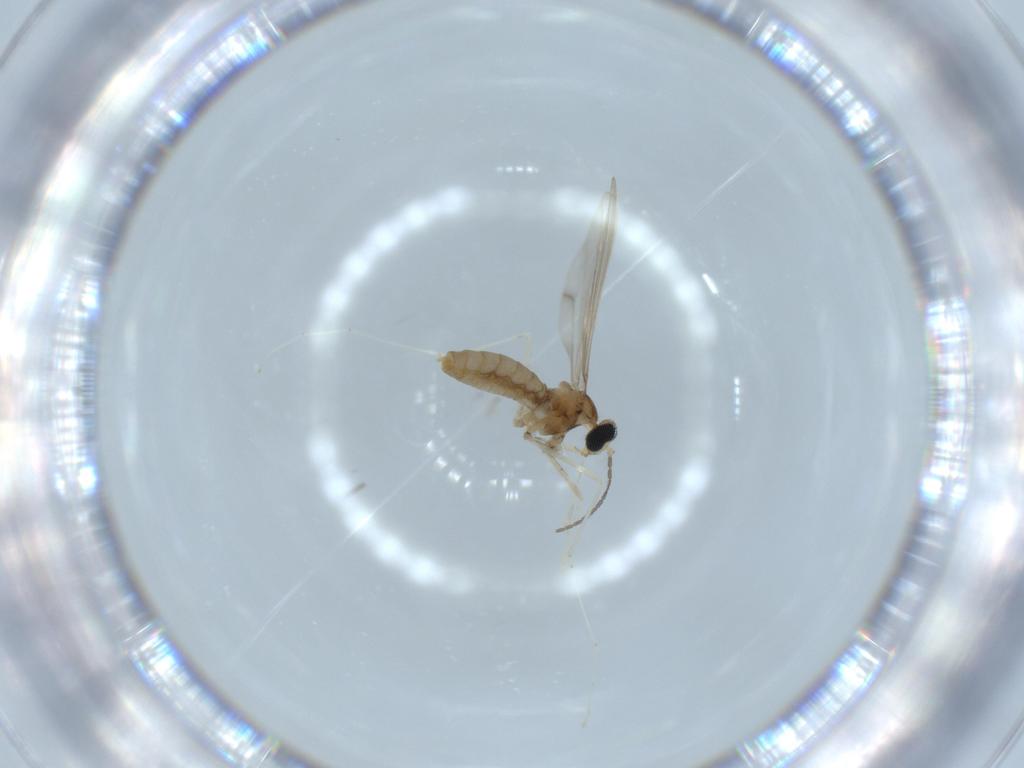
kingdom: Animalia
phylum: Arthropoda
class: Insecta
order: Diptera
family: Cecidomyiidae
